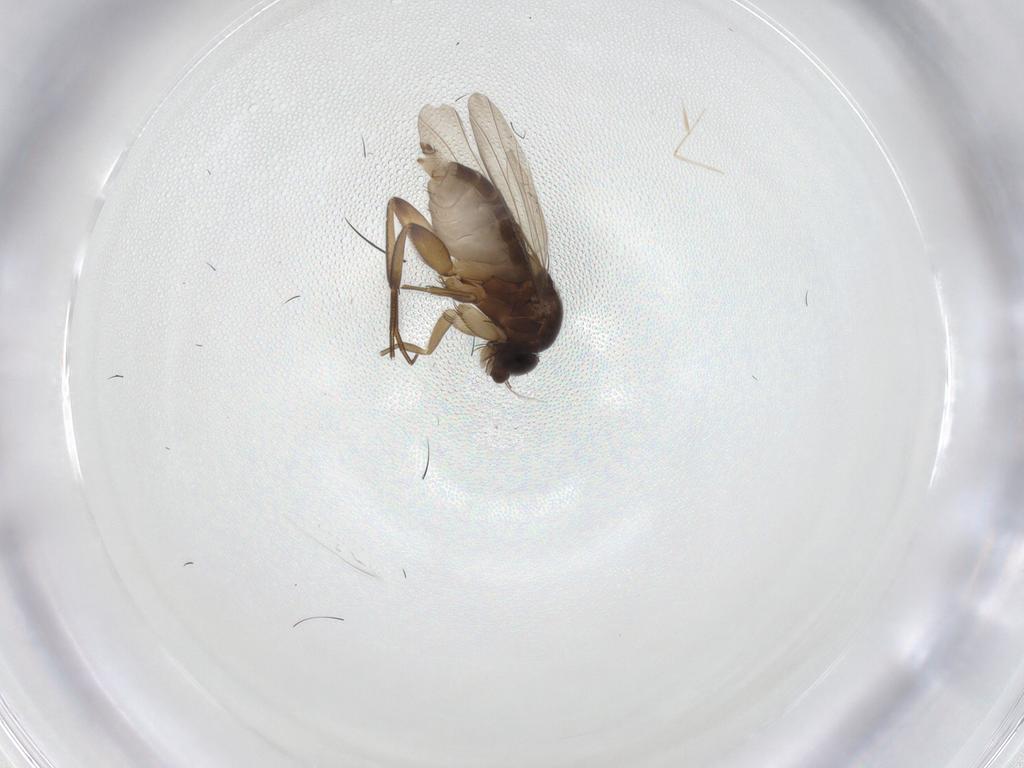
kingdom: Animalia
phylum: Arthropoda
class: Insecta
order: Diptera
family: Phoridae
